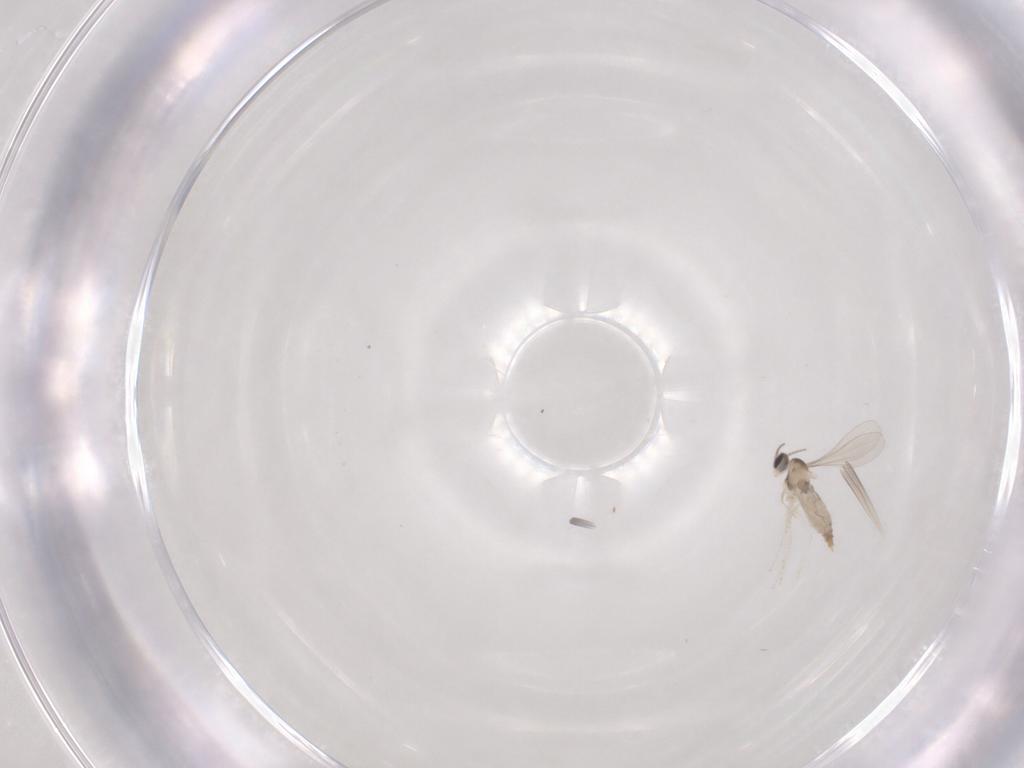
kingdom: Animalia
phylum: Arthropoda
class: Insecta
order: Diptera
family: Cecidomyiidae
